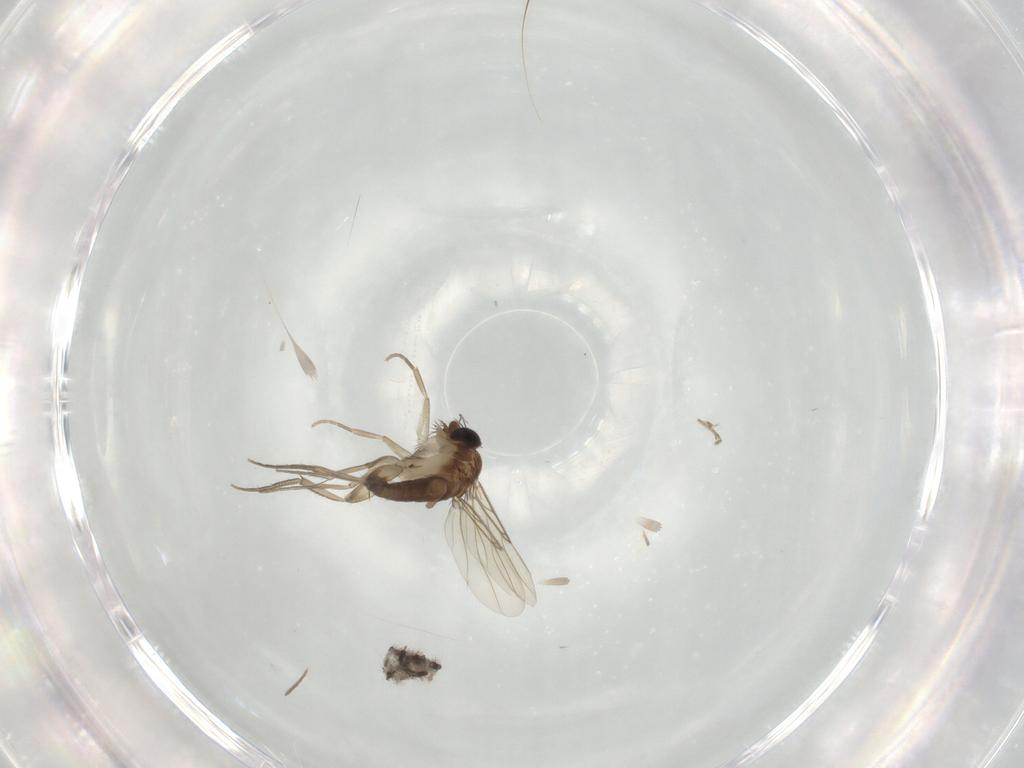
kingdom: Animalia
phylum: Arthropoda
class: Insecta
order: Diptera
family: Phoridae
